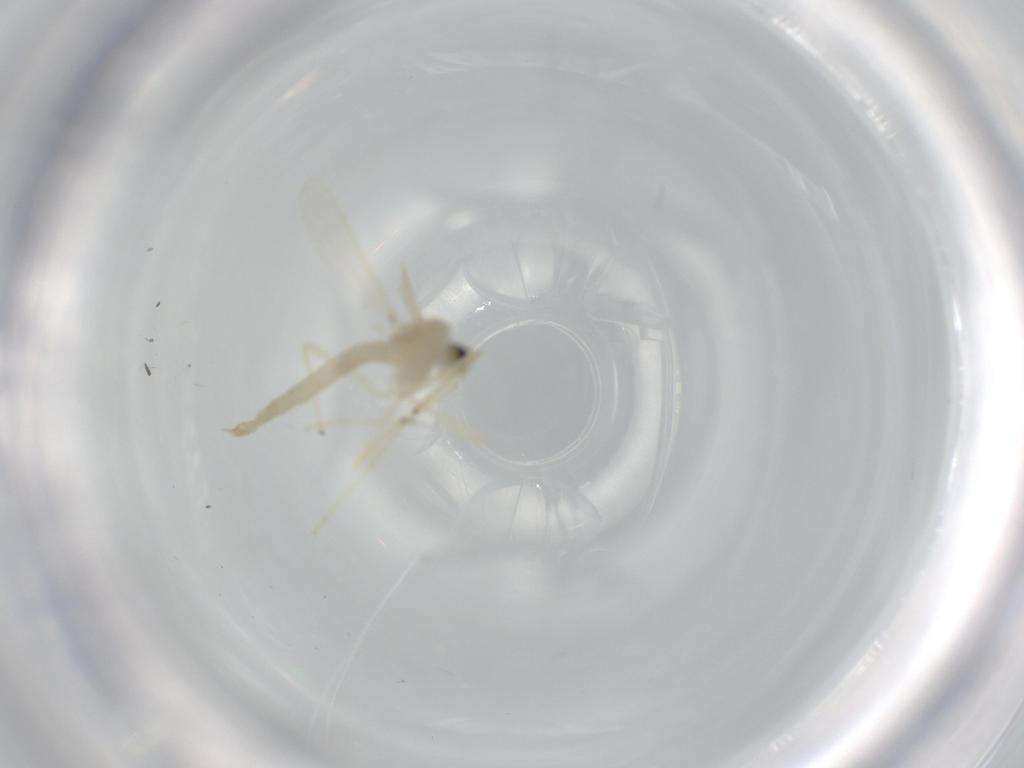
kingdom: Animalia
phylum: Arthropoda
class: Insecta
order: Diptera
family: Chironomidae
